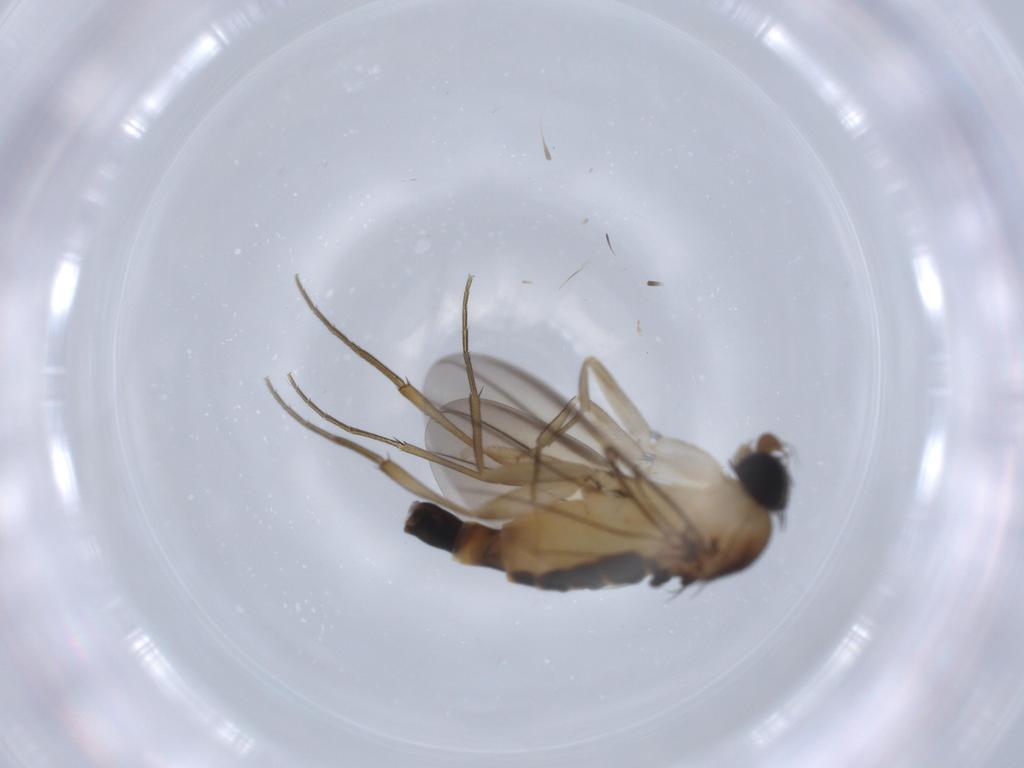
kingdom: Animalia
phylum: Arthropoda
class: Insecta
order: Diptera
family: Phoridae
